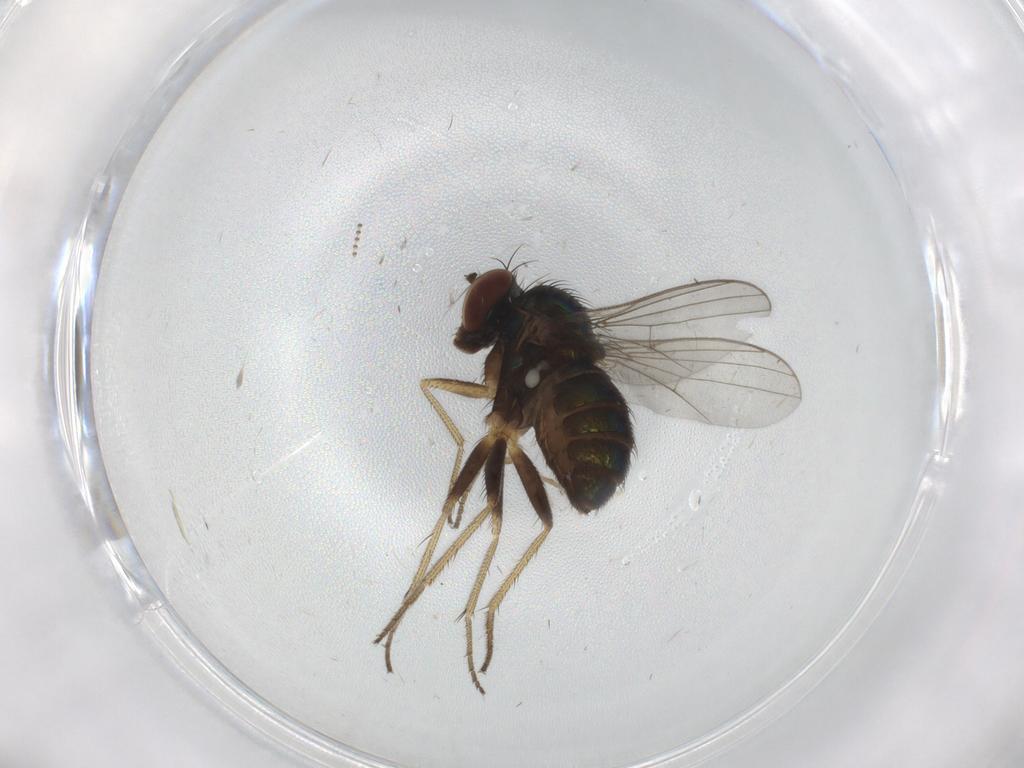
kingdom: Animalia
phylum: Arthropoda
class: Insecta
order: Diptera
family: Dolichopodidae
